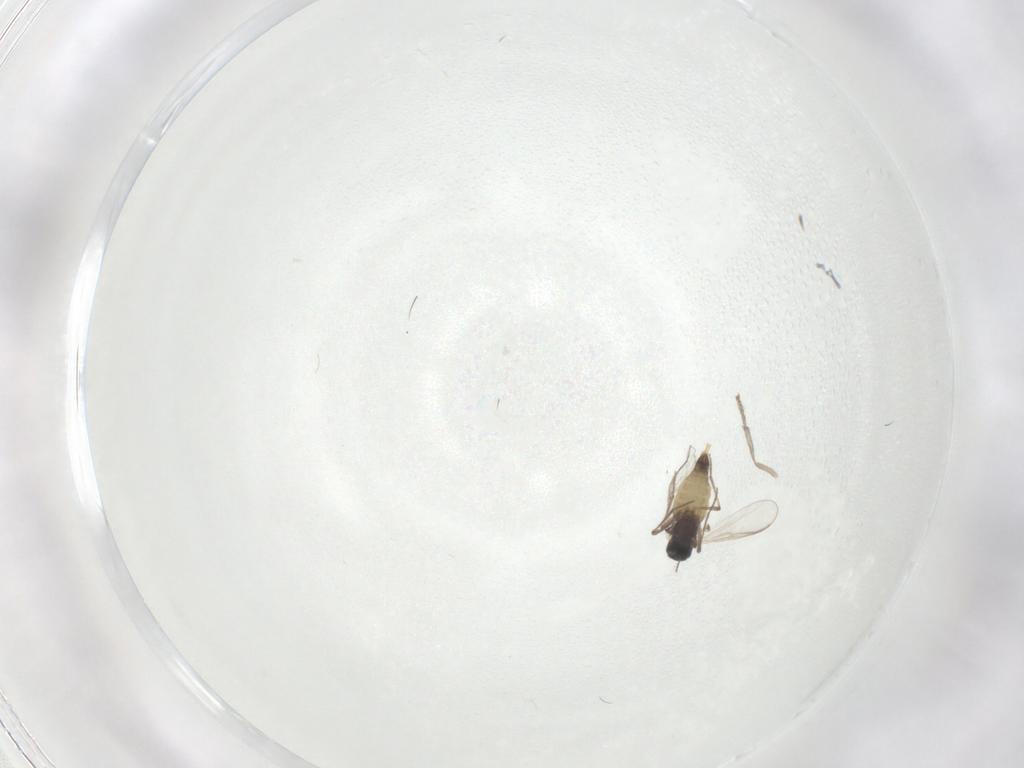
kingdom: Animalia
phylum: Arthropoda
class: Insecta
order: Diptera
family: Chironomidae
